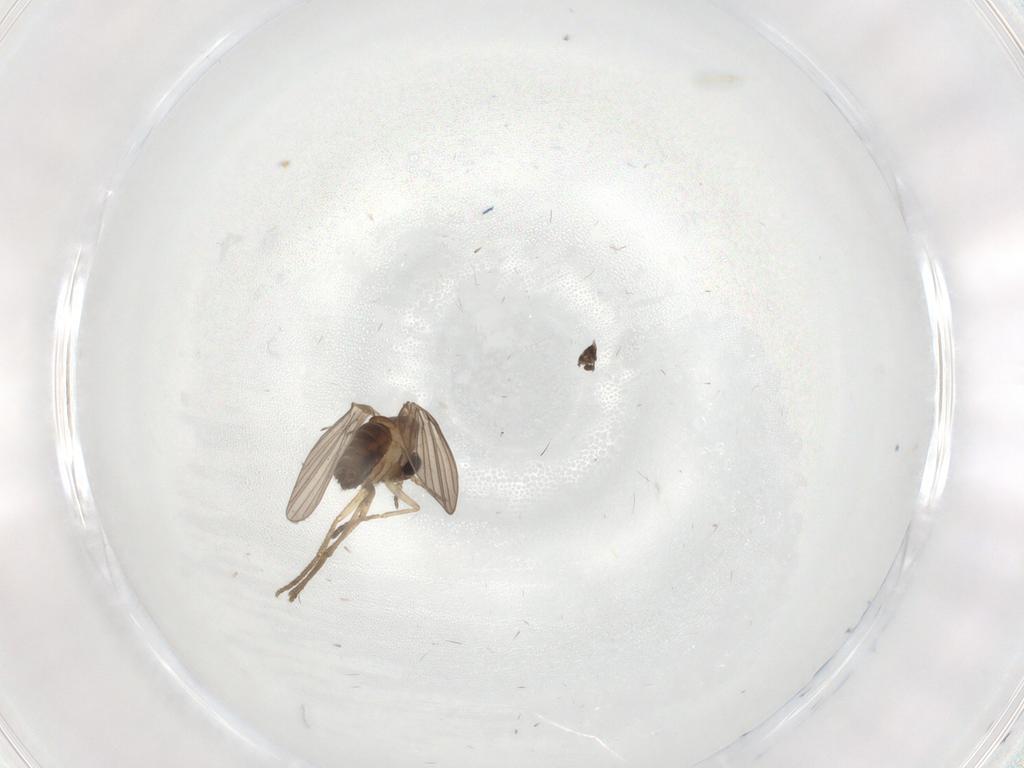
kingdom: Animalia
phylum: Arthropoda
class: Insecta
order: Diptera
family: Psychodidae
